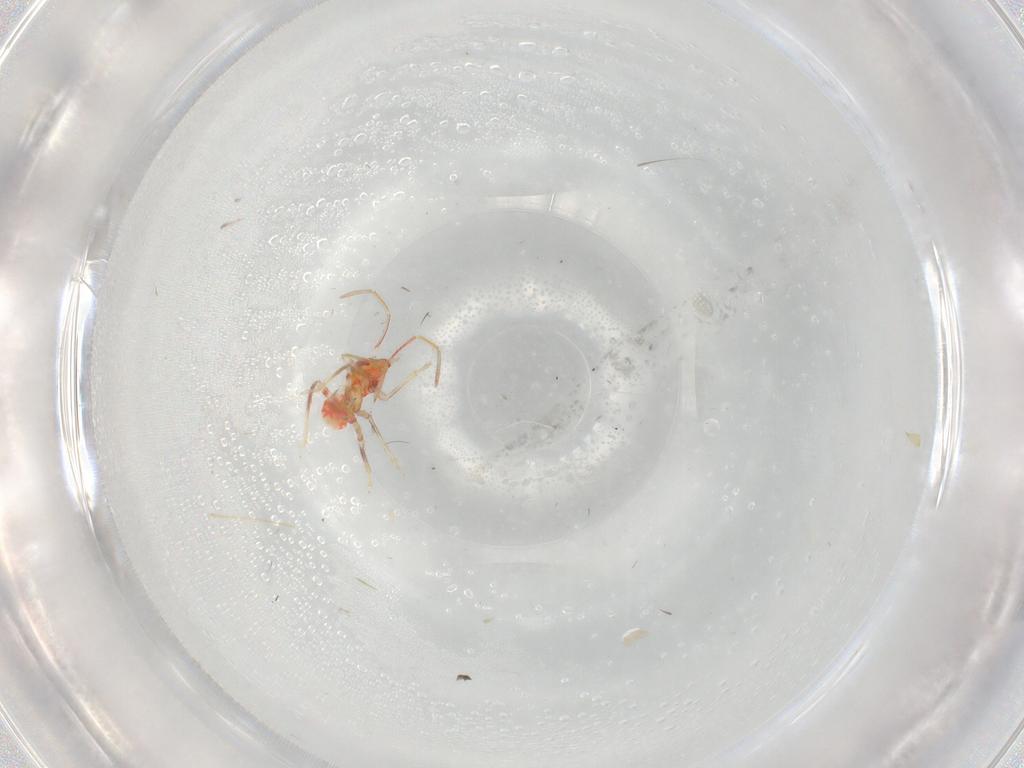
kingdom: Animalia
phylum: Arthropoda
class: Insecta
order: Hemiptera
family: Miridae
